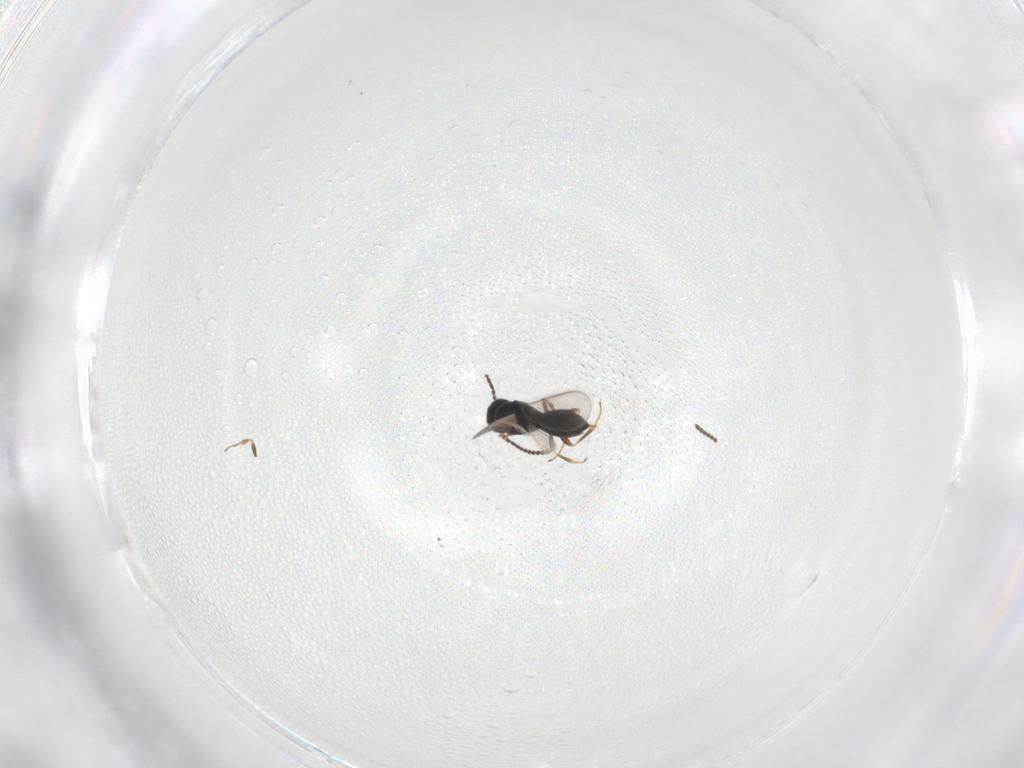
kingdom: Animalia
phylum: Arthropoda
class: Insecta
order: Hymenoptera
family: Scelionidae
